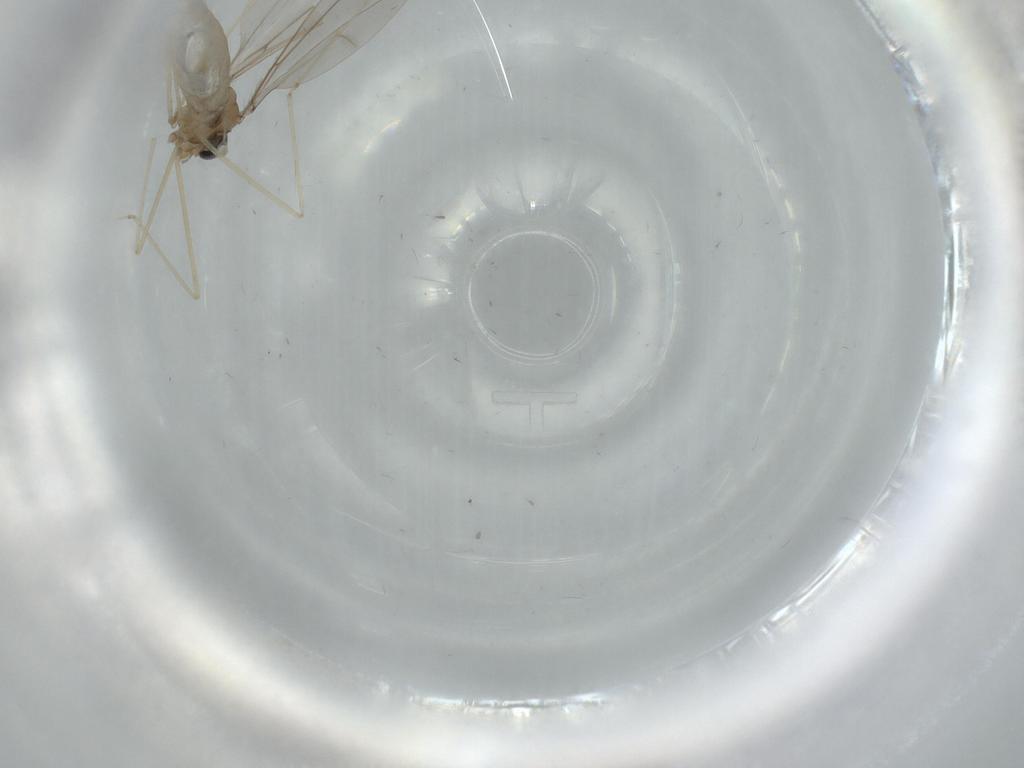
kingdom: Animalia
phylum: Arthropoda
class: Insecta
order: Diptera
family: Cecidomyiidae
